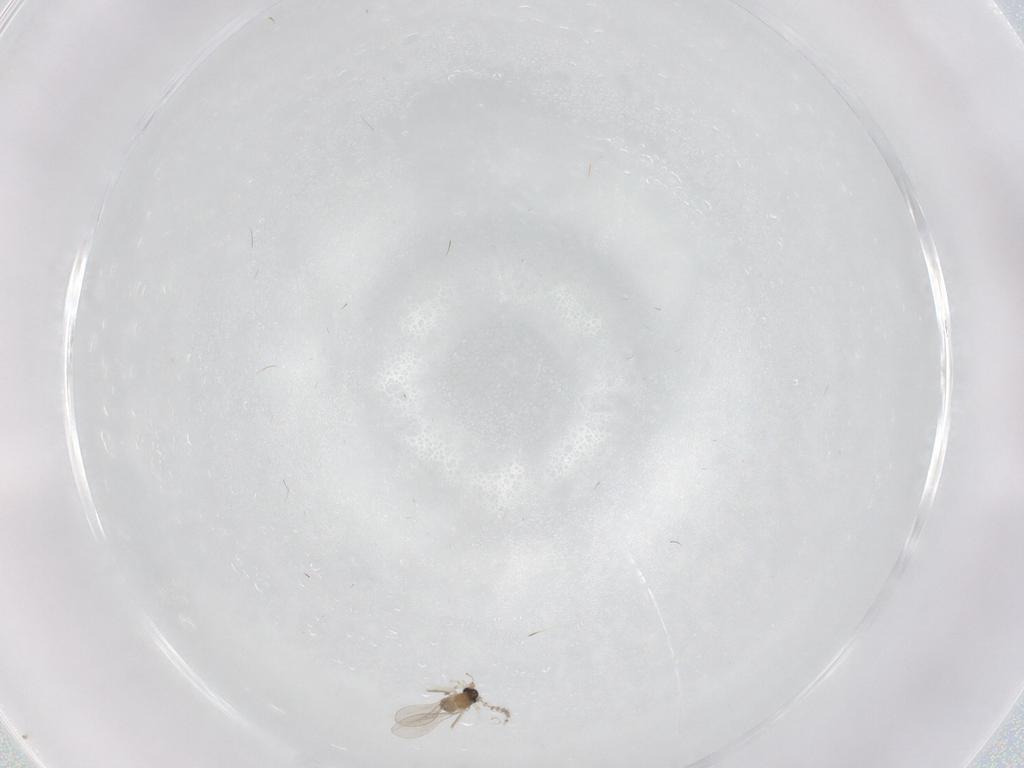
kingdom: Animalia
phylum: Arthropoda
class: Insecta
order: Diptera
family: Cecidomyiidae
